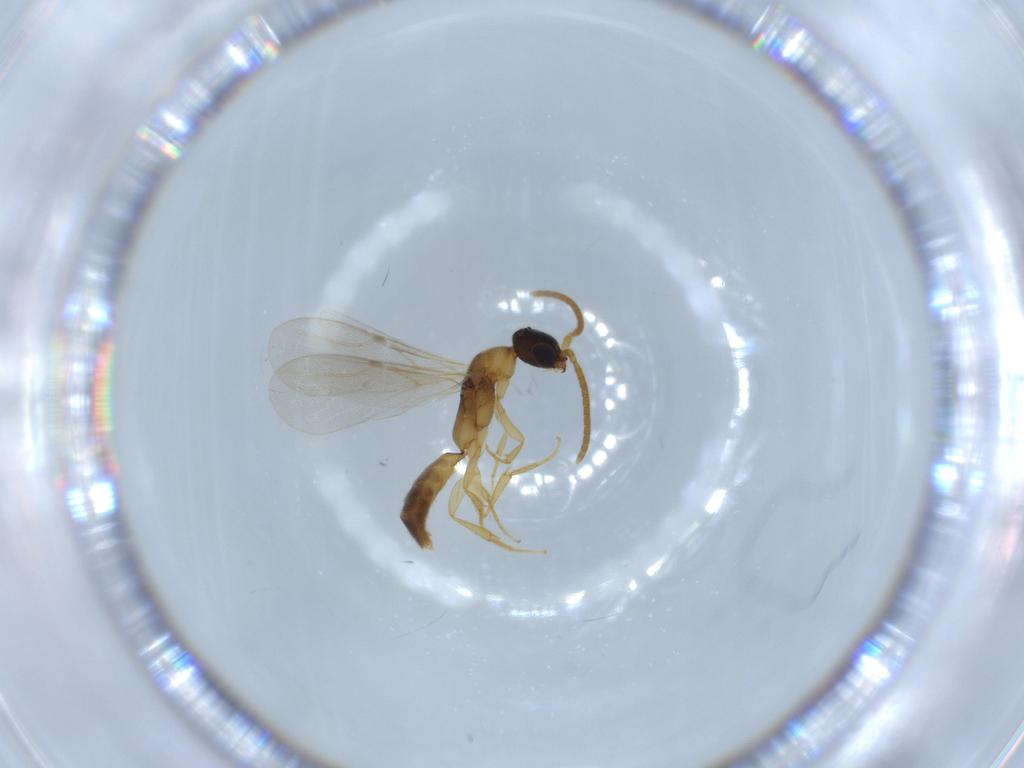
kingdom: Animalia
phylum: Arthropoda
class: Insecta
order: Hymenoptera
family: Bethylidae
